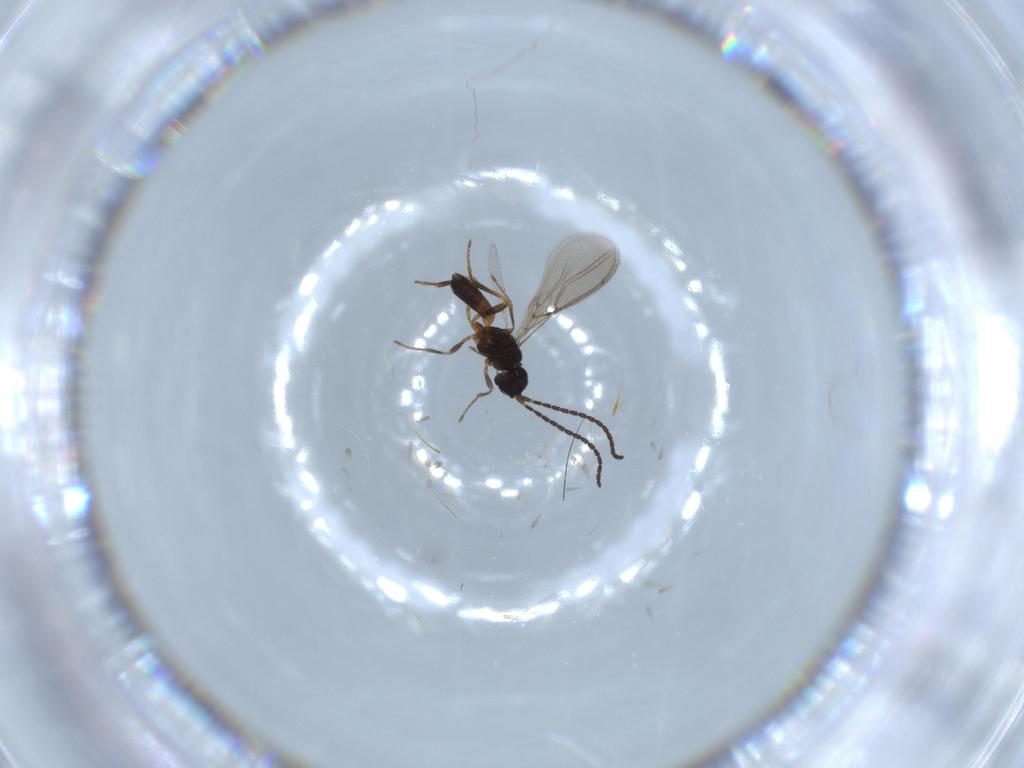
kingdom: Animalia
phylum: Arthropoda
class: Insecta
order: Hymenoptera
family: Braconidae
